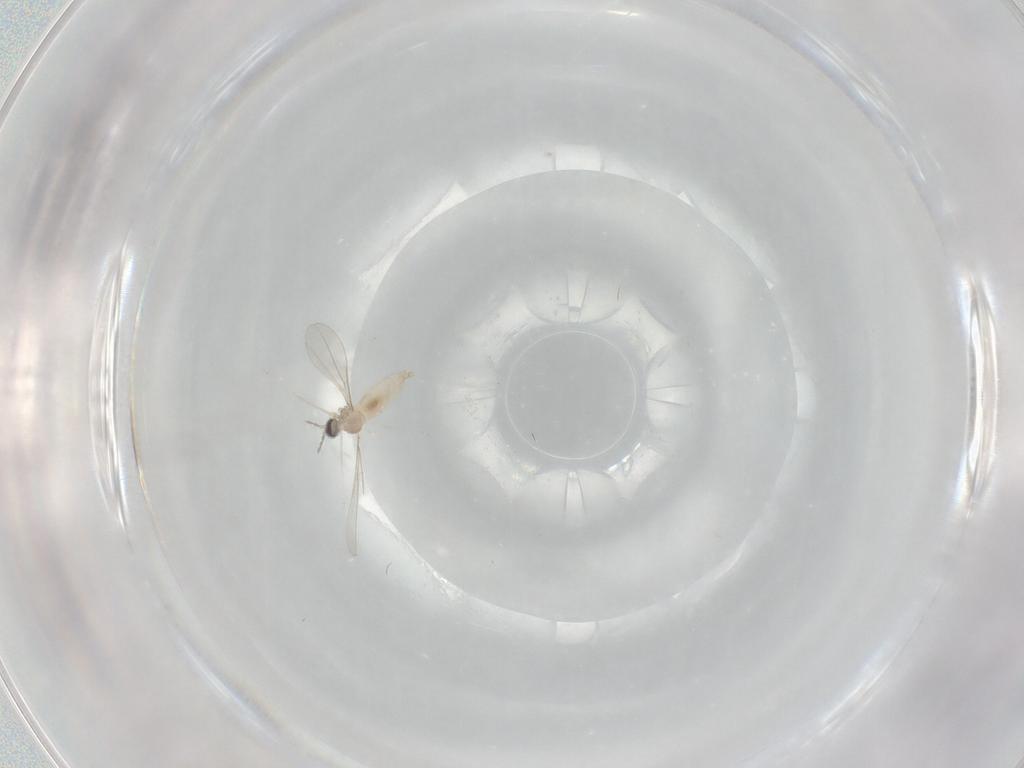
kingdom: Animalia
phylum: Arthropoda
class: Insecta
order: Diptera
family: Cecidomyiidae
